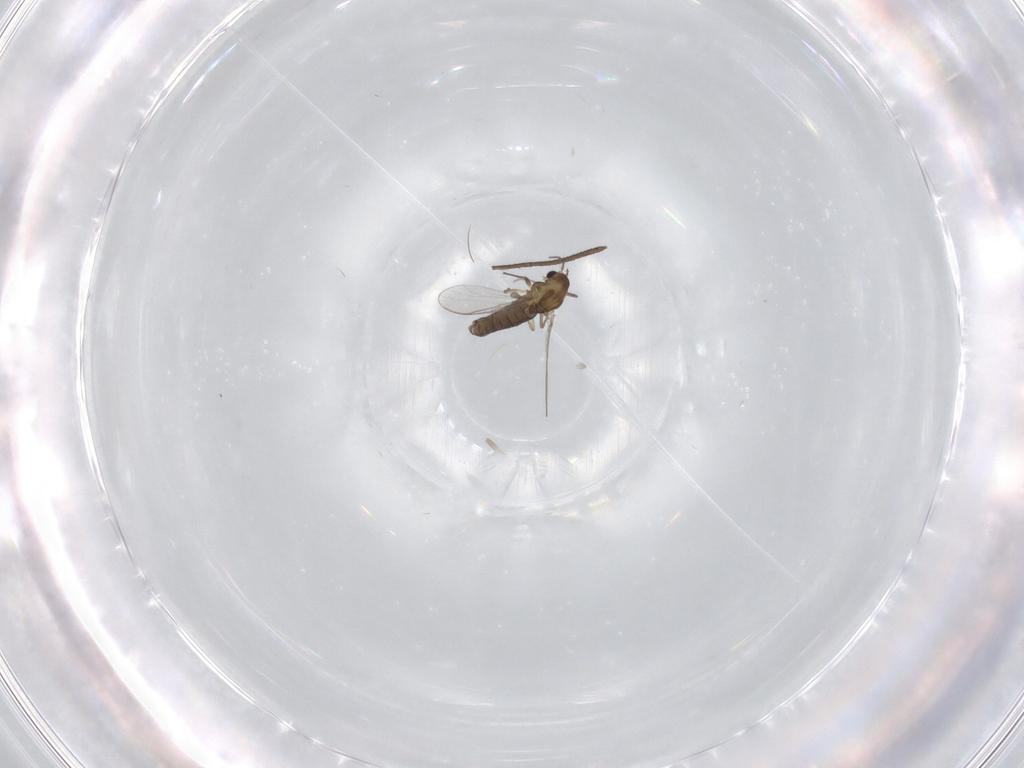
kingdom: Animalia
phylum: Arthropoda
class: Insecta
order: Diptera
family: Chironomidae
